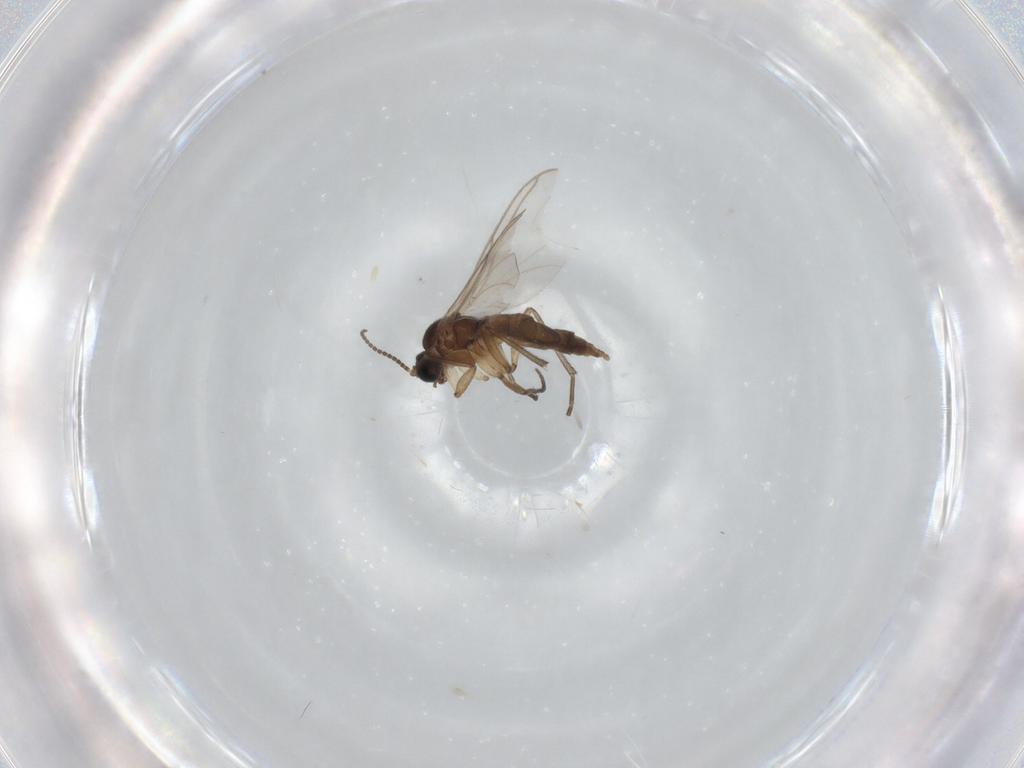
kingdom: Animalia
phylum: Arthropoda
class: Insecta
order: Diptera
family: Sciaridae
